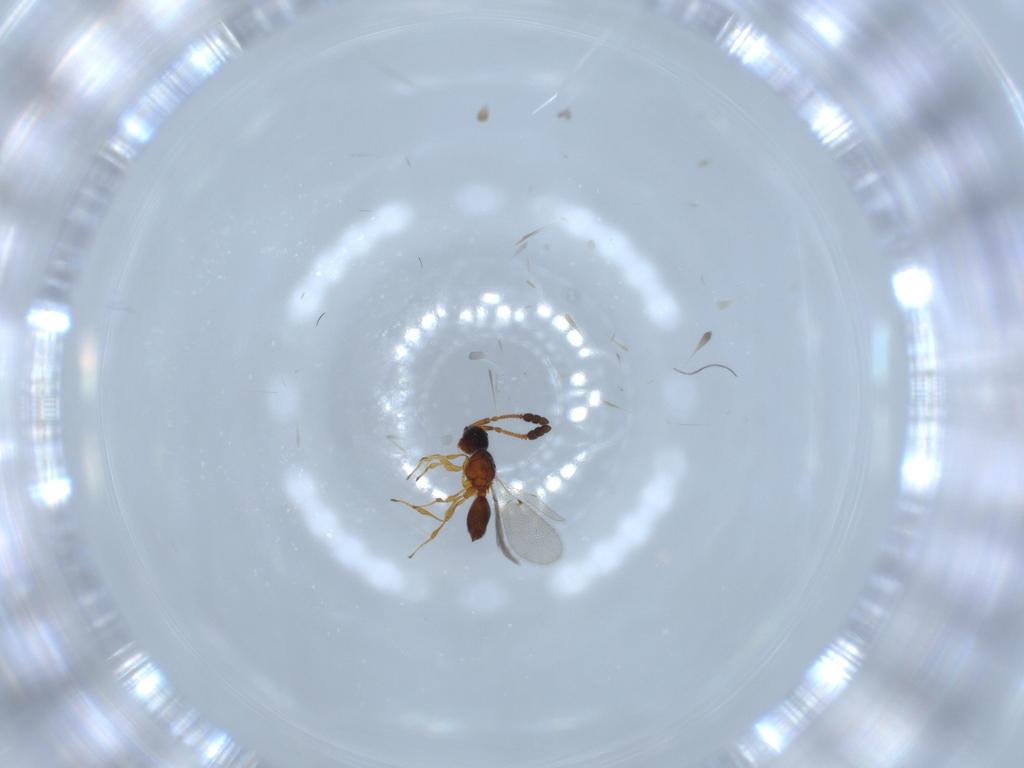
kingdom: Animalia
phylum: Arthropoda
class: Insecta
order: Hymenoptera
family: Diapriidae
